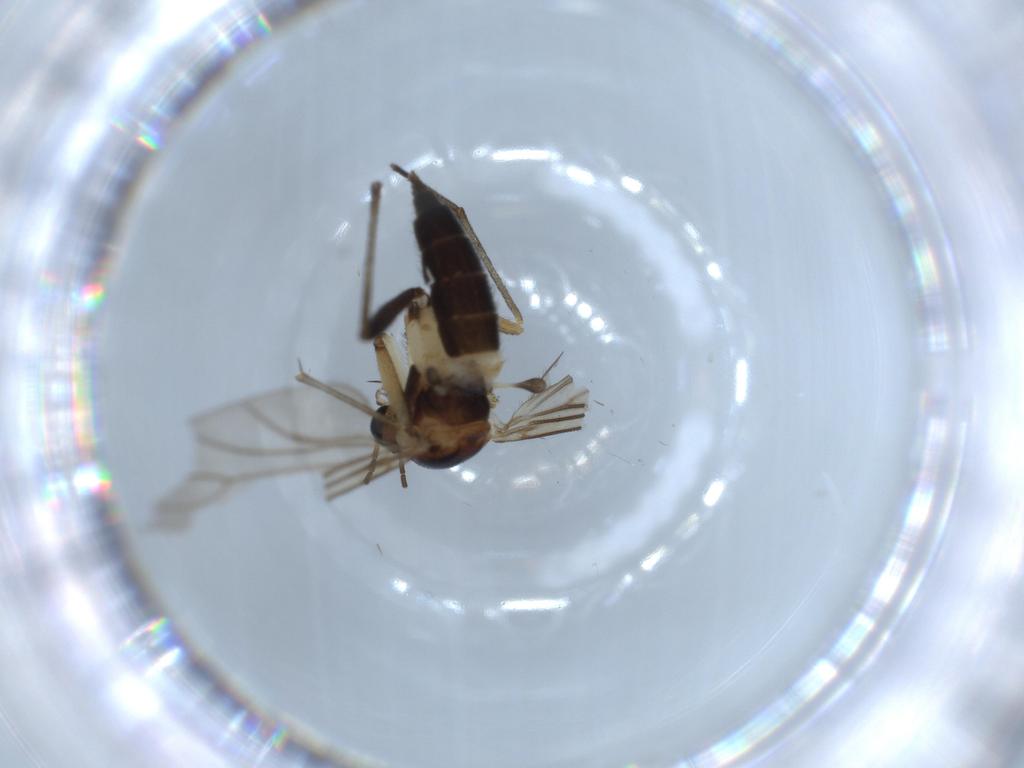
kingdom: Animalia
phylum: Arthropoda
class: Insecta
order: Diptera
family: Sciaridae
